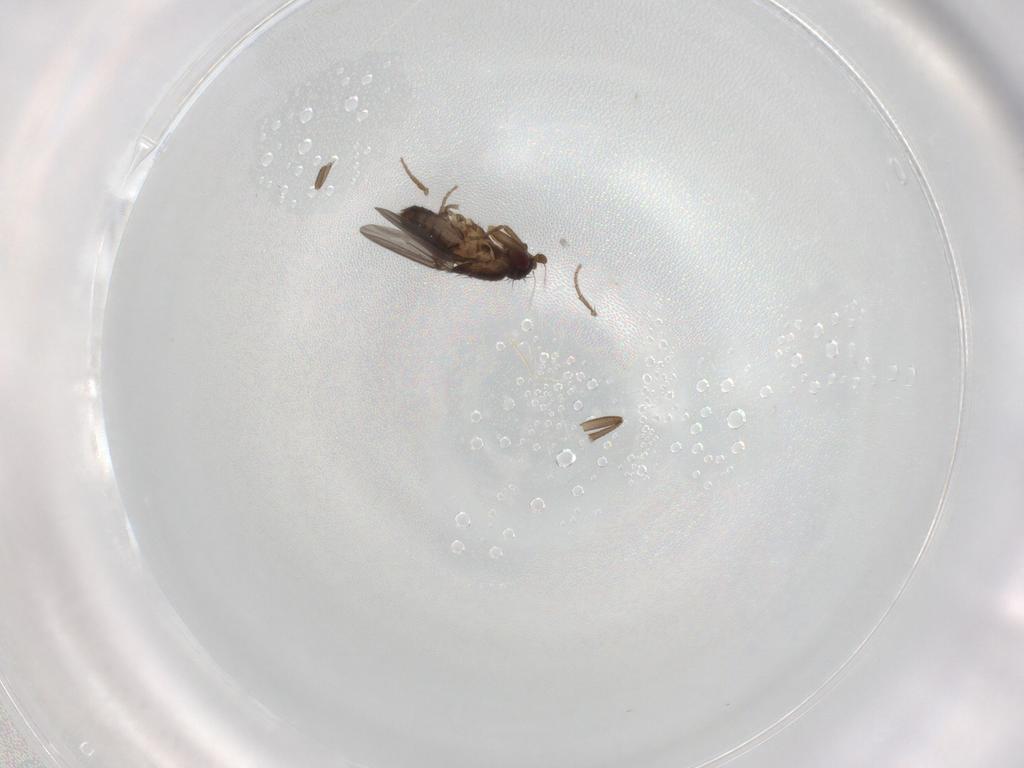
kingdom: Animalia
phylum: Arthropoda
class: Insecta
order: Diptera
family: Sphaeroceridae
